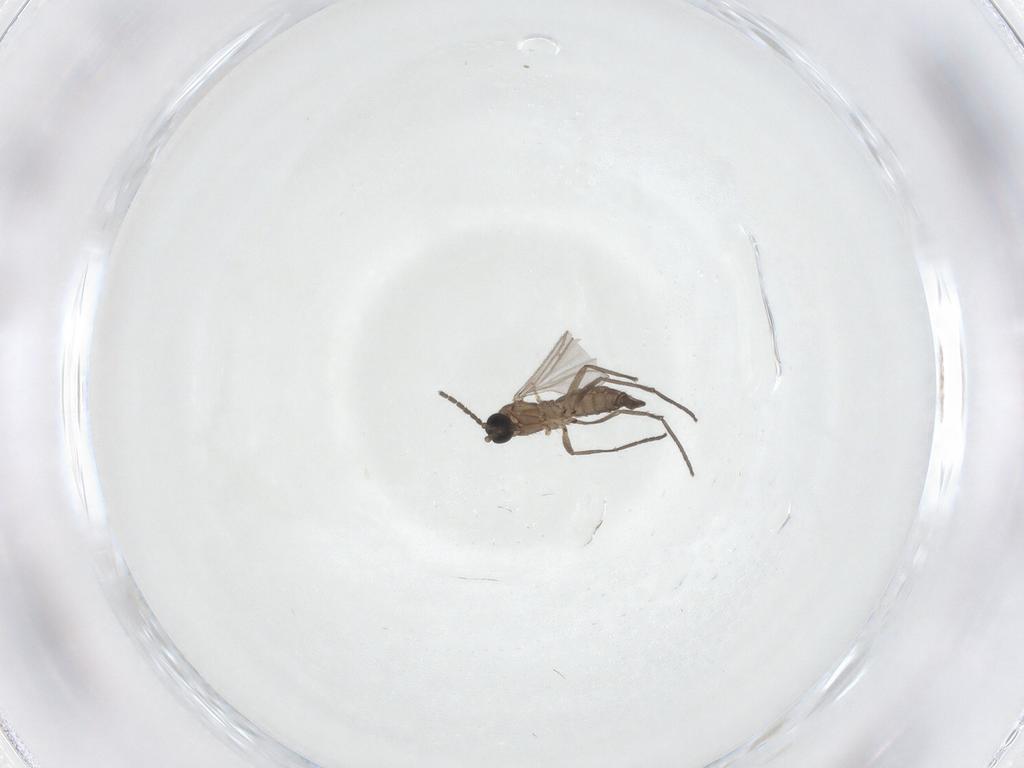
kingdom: Animalia
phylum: Arthropoda
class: Insecta
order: Diptera
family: Sciaridae
